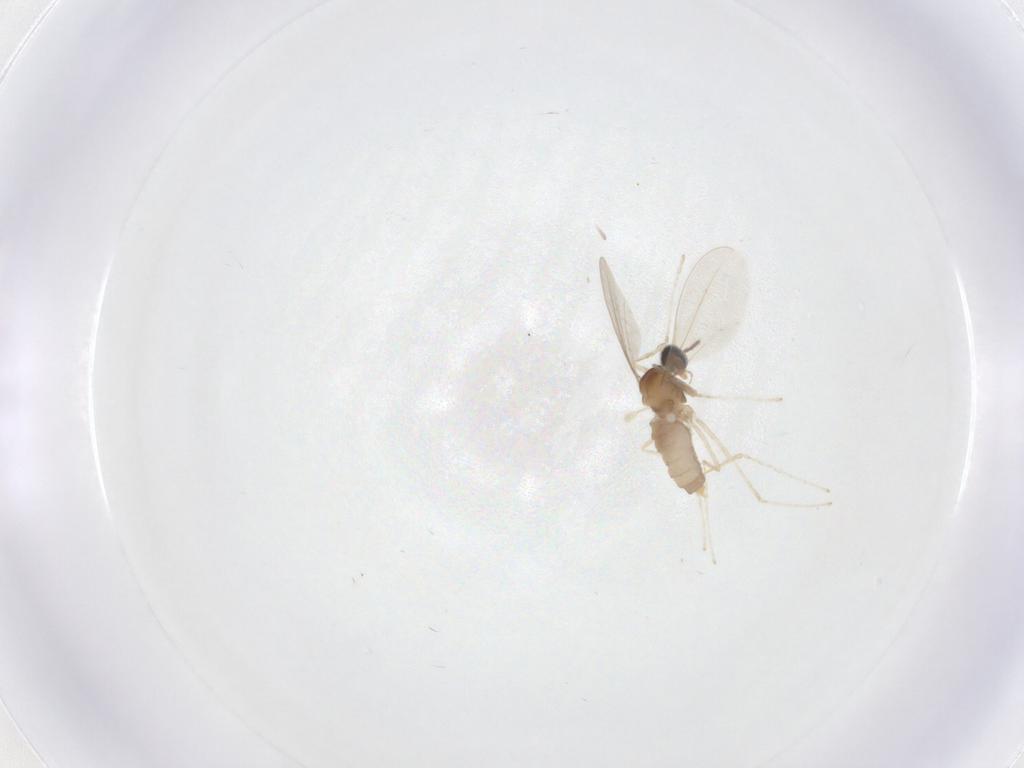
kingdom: Animalia
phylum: Arthropoda
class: Insecta
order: Diptera
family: Cecidomyiidae
